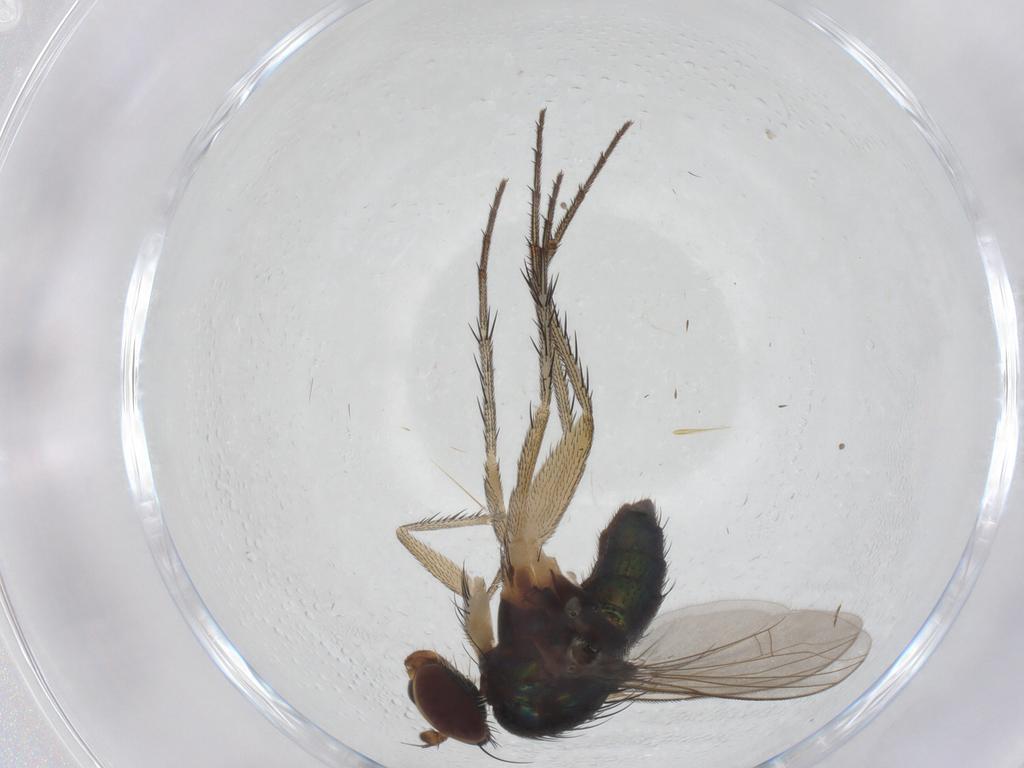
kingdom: Animalia
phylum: Arthropoda
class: Insecta
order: Diptera
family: Dolichopodidae
